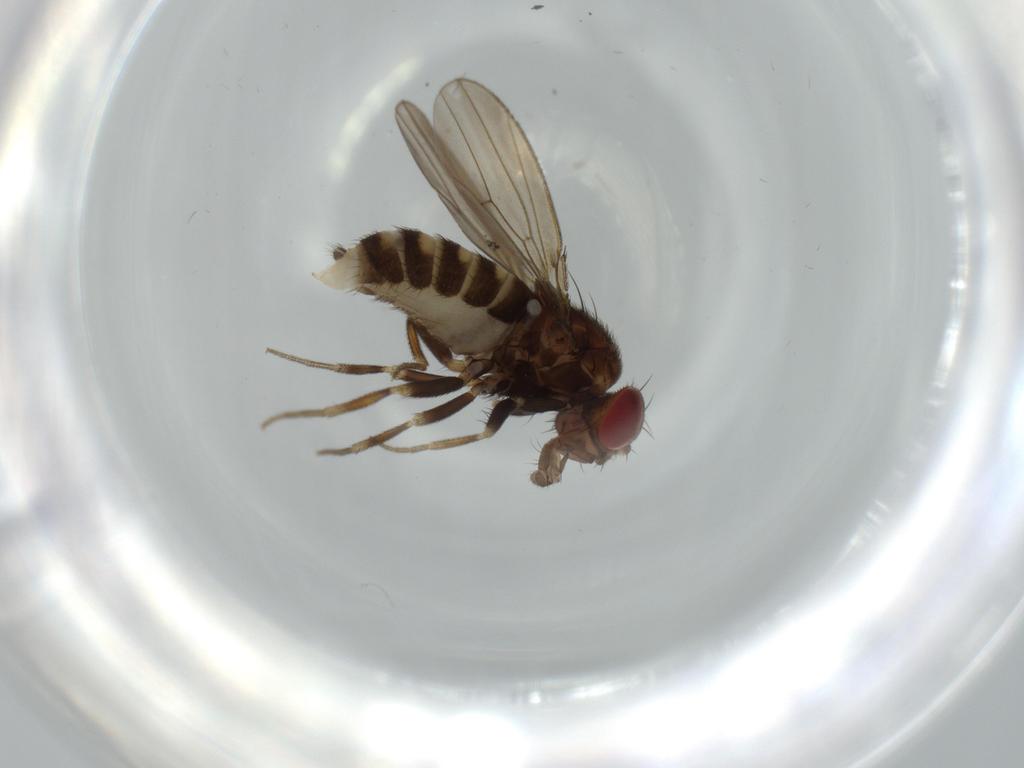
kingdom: Animalia
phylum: Arthropoda
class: Insecta
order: Diptera
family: Drosophilidae
